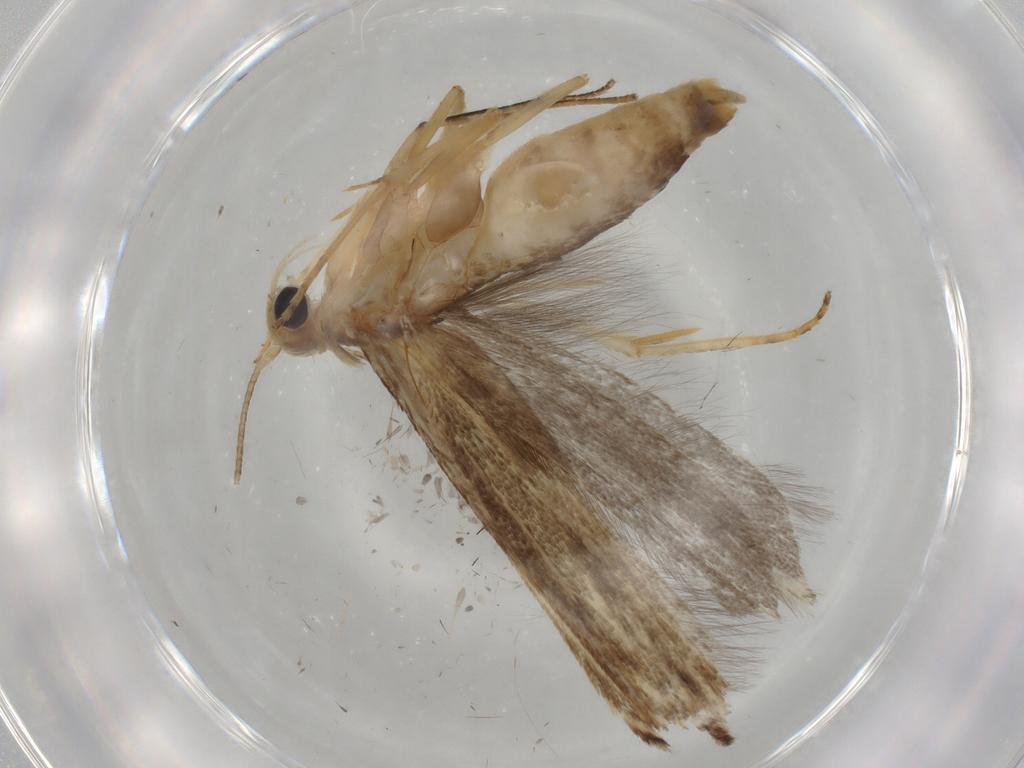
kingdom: Animalia
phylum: Arthropoda
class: Insecta
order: Lepidoptera
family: Gelechiidae
